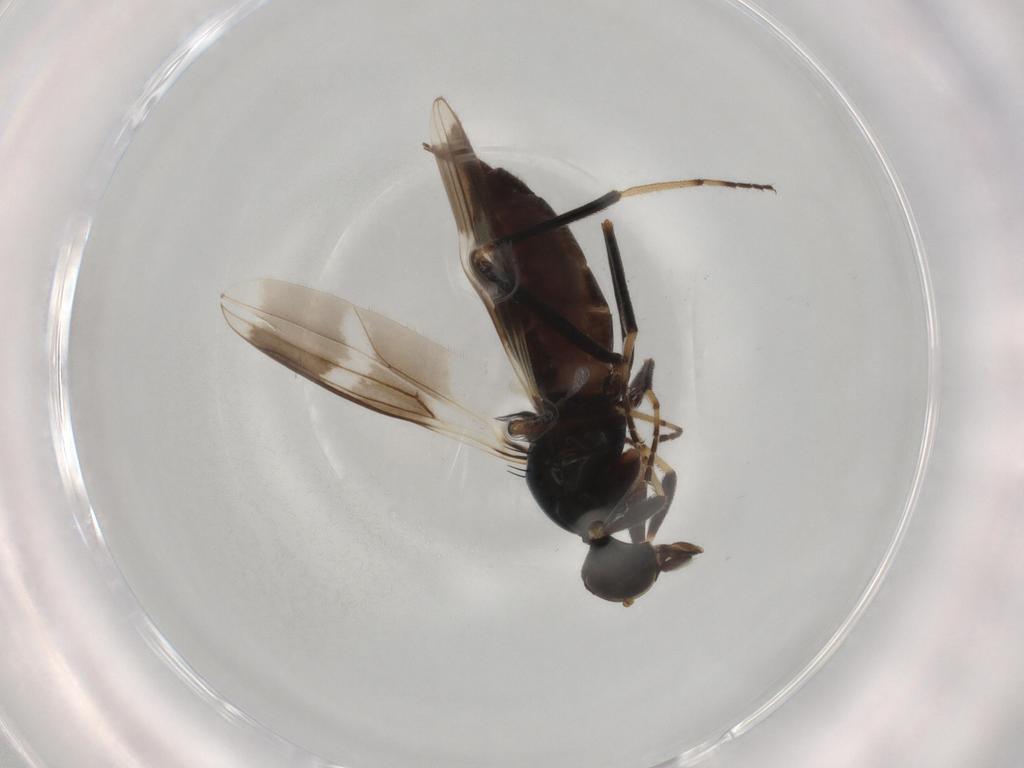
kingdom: Animalia
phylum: Arthropoda
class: Insecta
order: Diptera
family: Limoniidae
